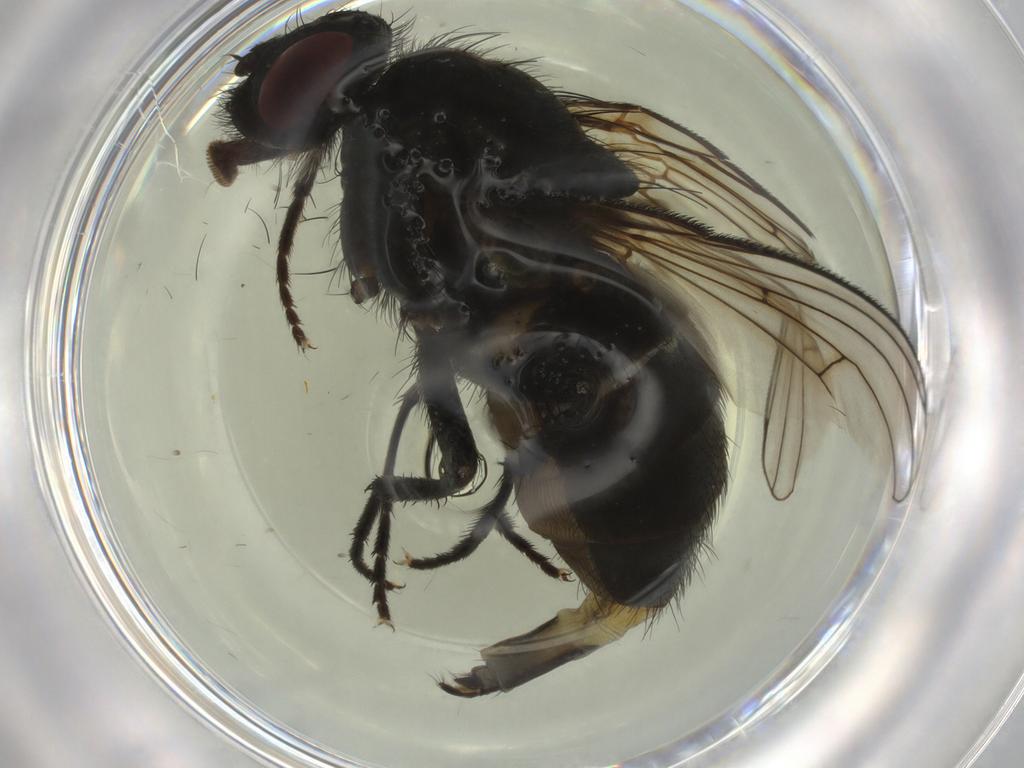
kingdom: Animalia
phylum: Arthropoda
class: Insecta
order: Diptera
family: Muscidae
